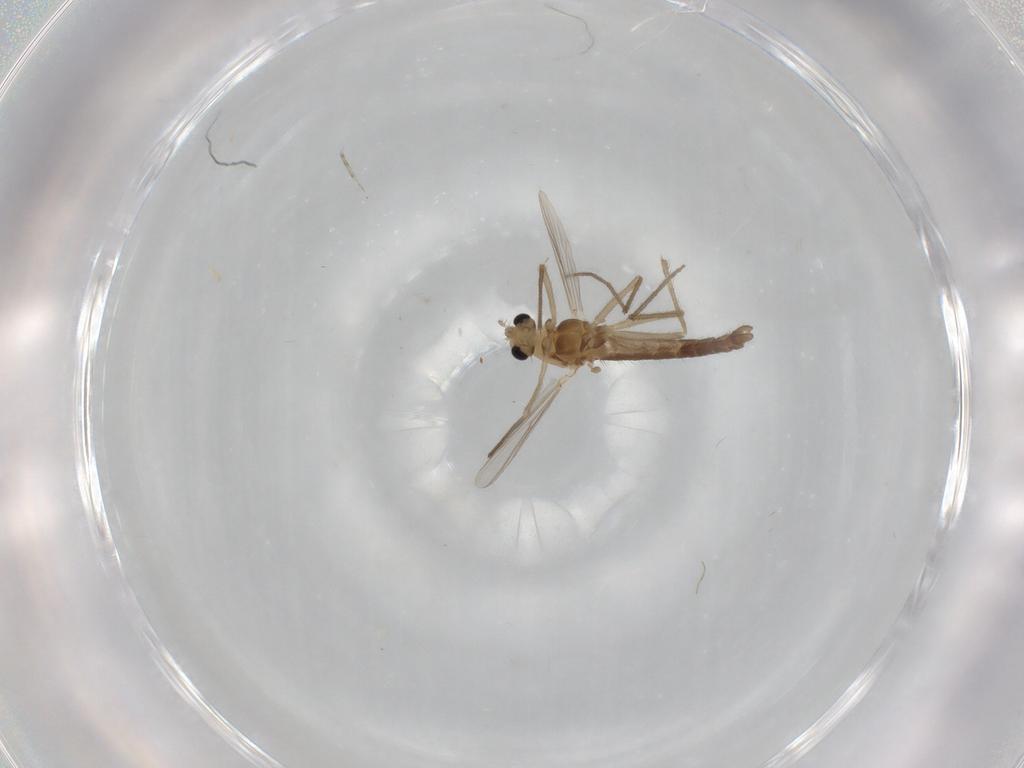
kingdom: Animalia
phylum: Arthropoda
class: Insecta
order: Diptera
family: Chironomidae
